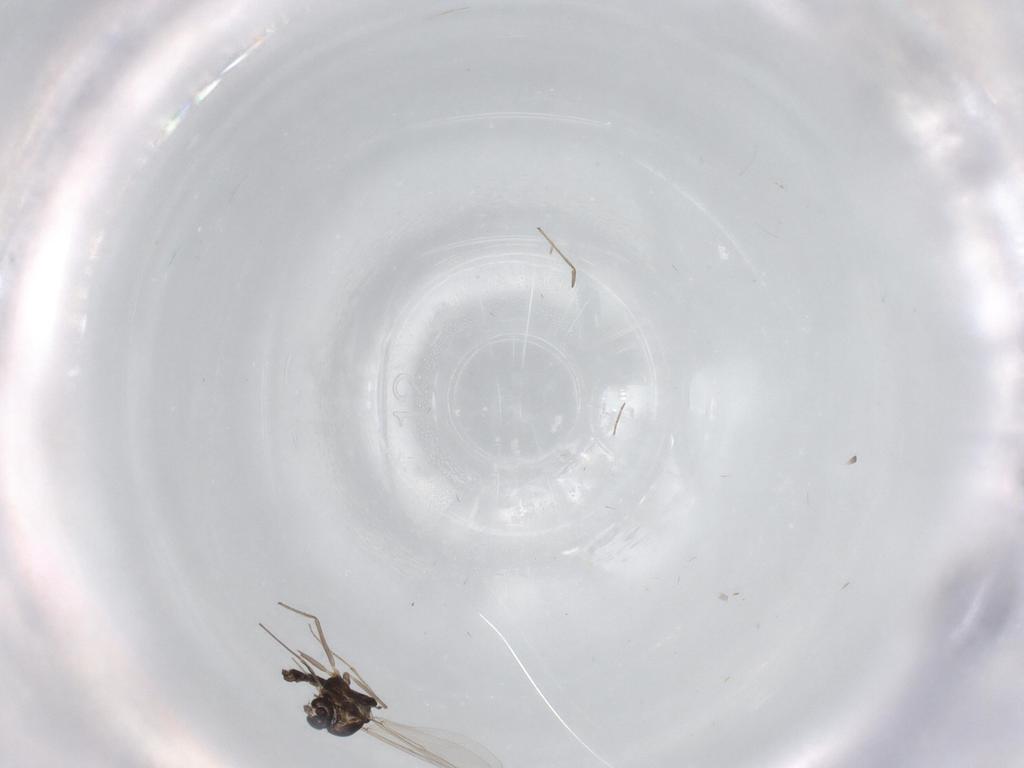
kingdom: Animalia
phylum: Arthropoda
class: Insecta
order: Diptera
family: Chironomidae
